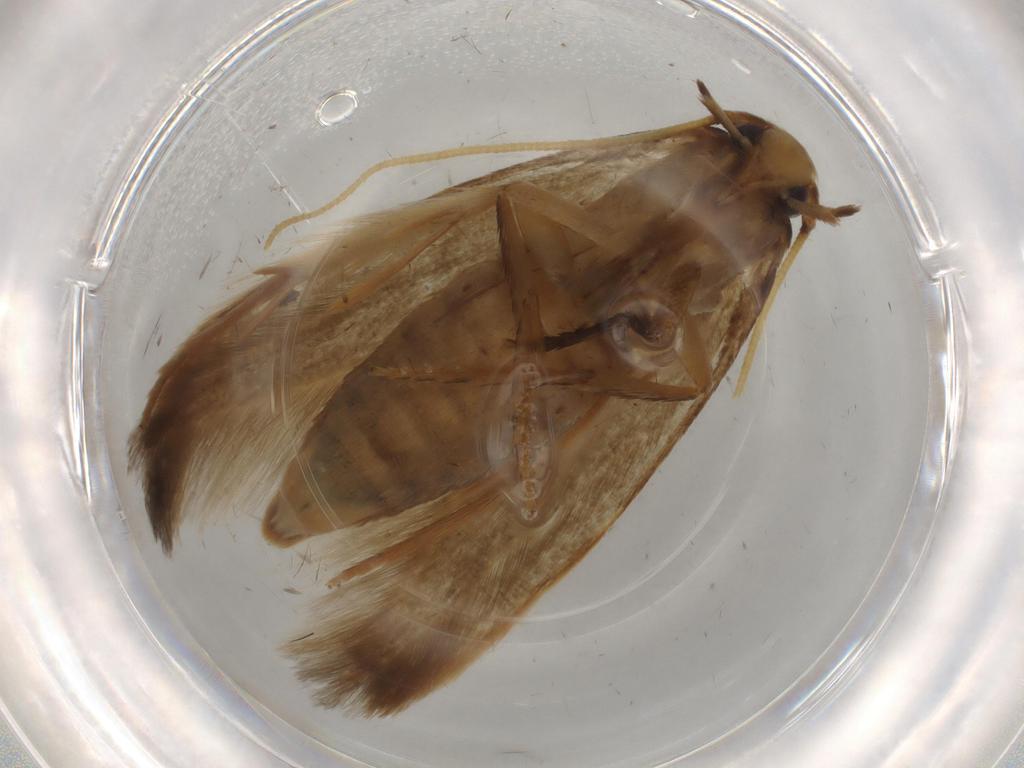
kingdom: Animalia
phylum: Arthropoda
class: Insecta
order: Lepidoptera
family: Tineidae
